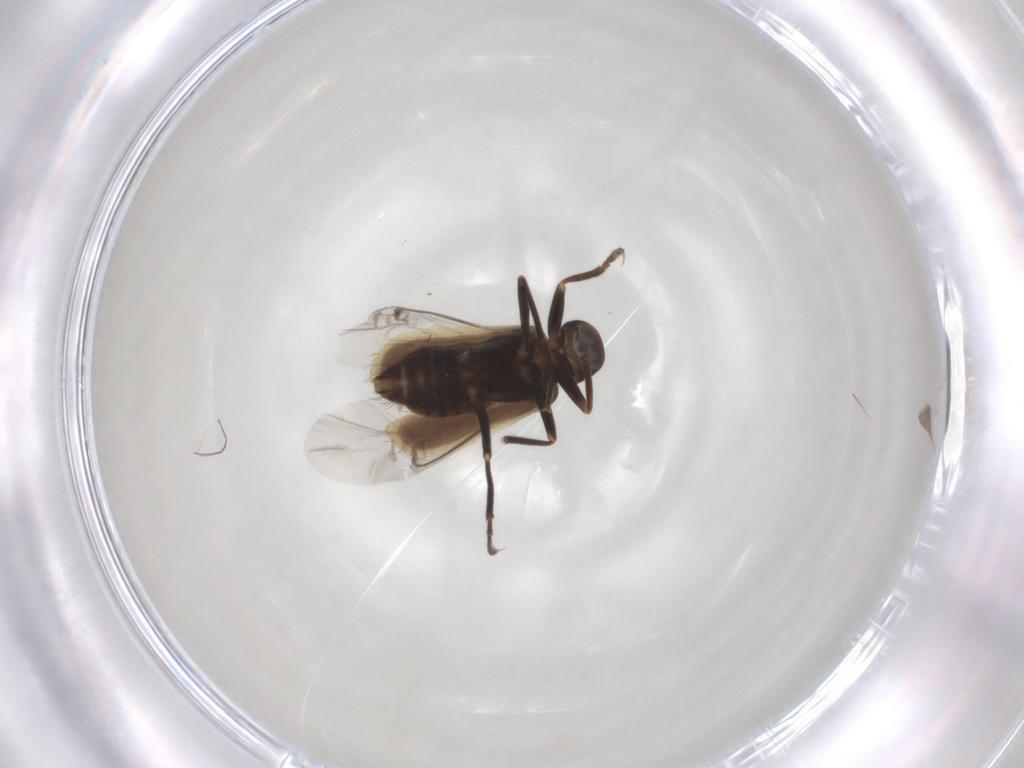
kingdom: Animalia
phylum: Arthropoda
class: Insecta
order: Coleoptera
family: Dasytidae
